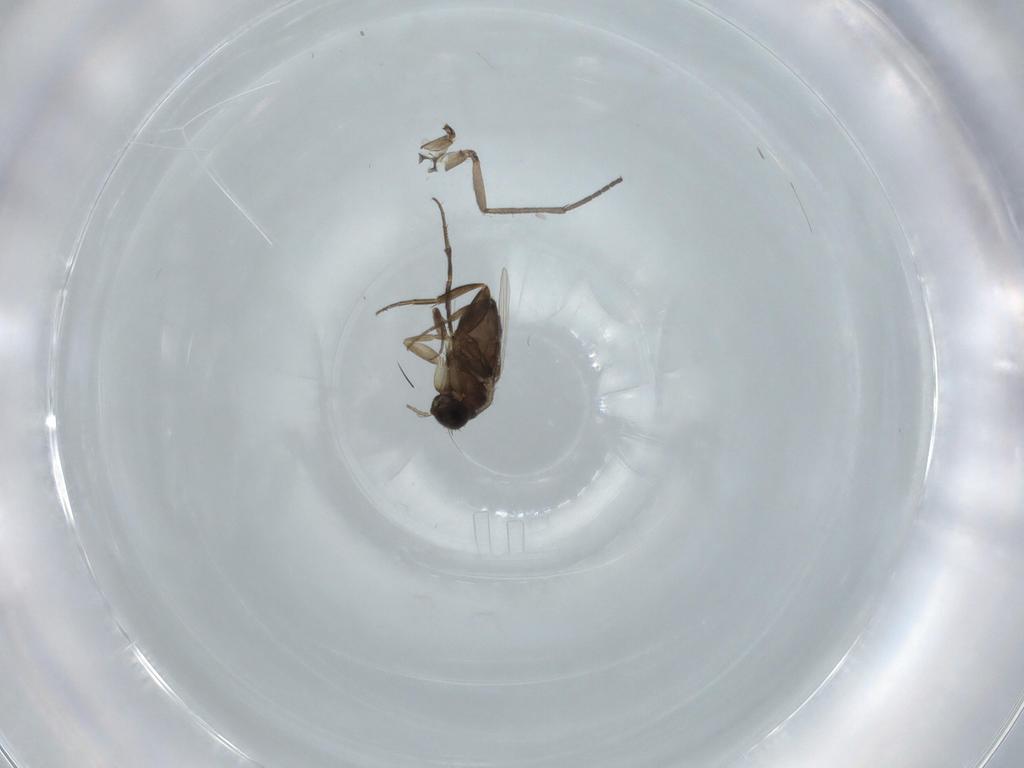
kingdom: Animalia
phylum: Arthropoda
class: Insecta
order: Diptera
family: Sciaridae
